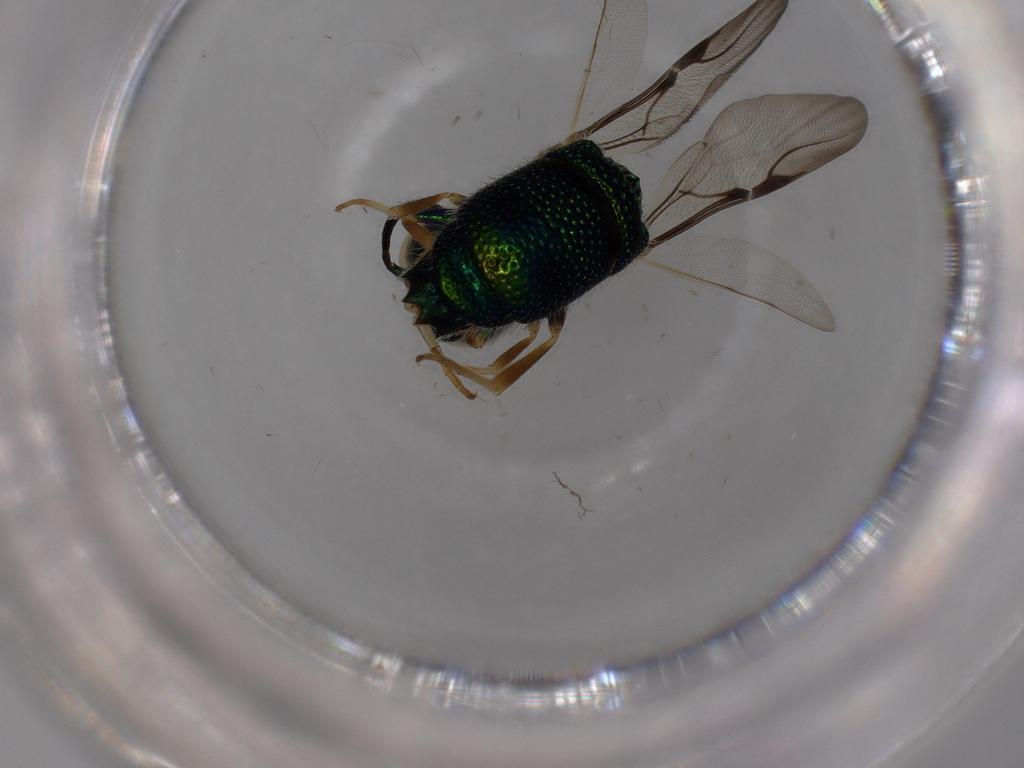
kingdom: Animalia
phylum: Arthropoda
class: Insecta
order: Hymenoptera
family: Chrysididae
